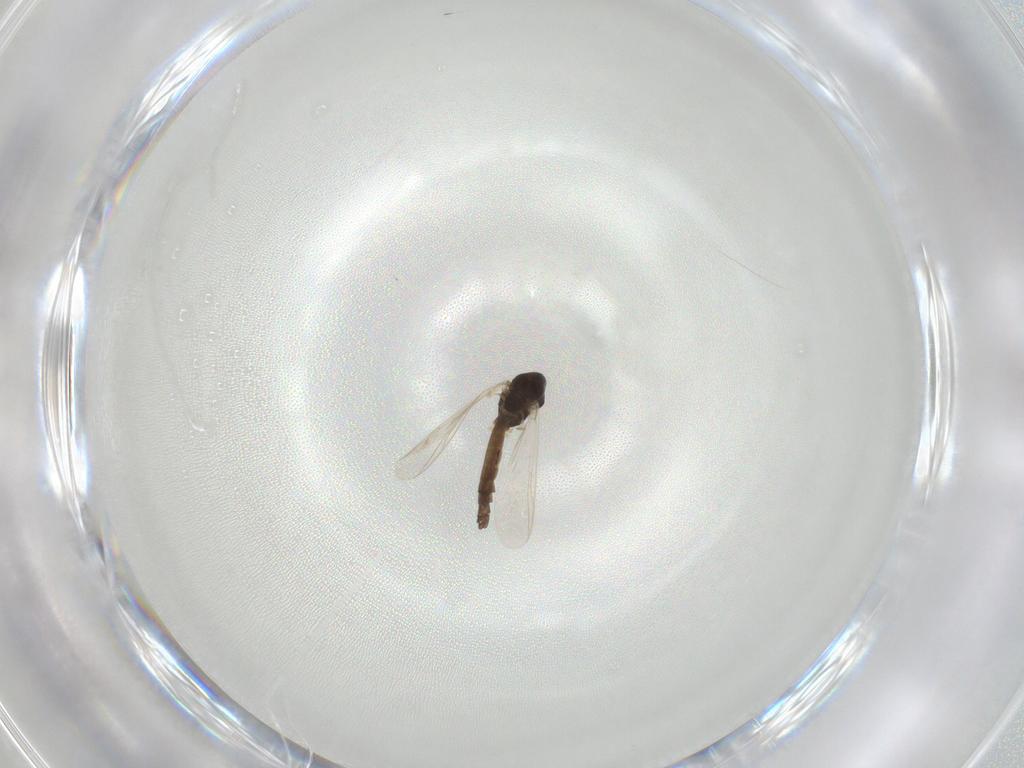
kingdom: Animalia
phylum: Arthropoda
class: Insecta
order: Diptera
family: Chironomidae
